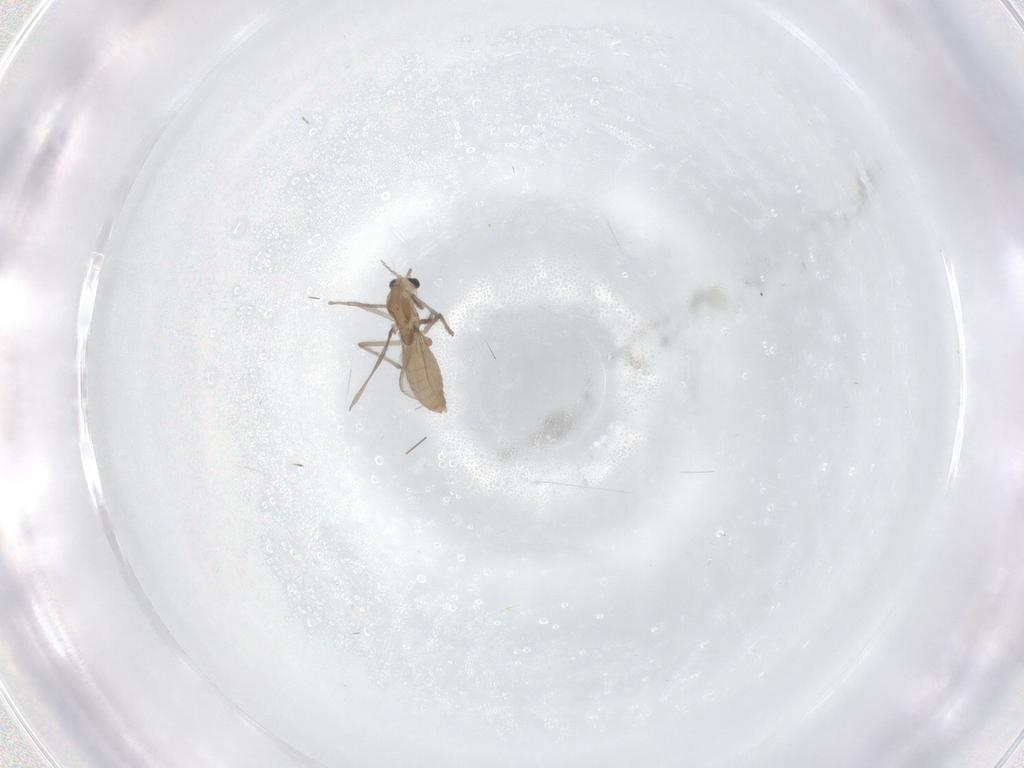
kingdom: Animalia
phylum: Arthropoda
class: Insecta
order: Diptera
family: Chironomidae
